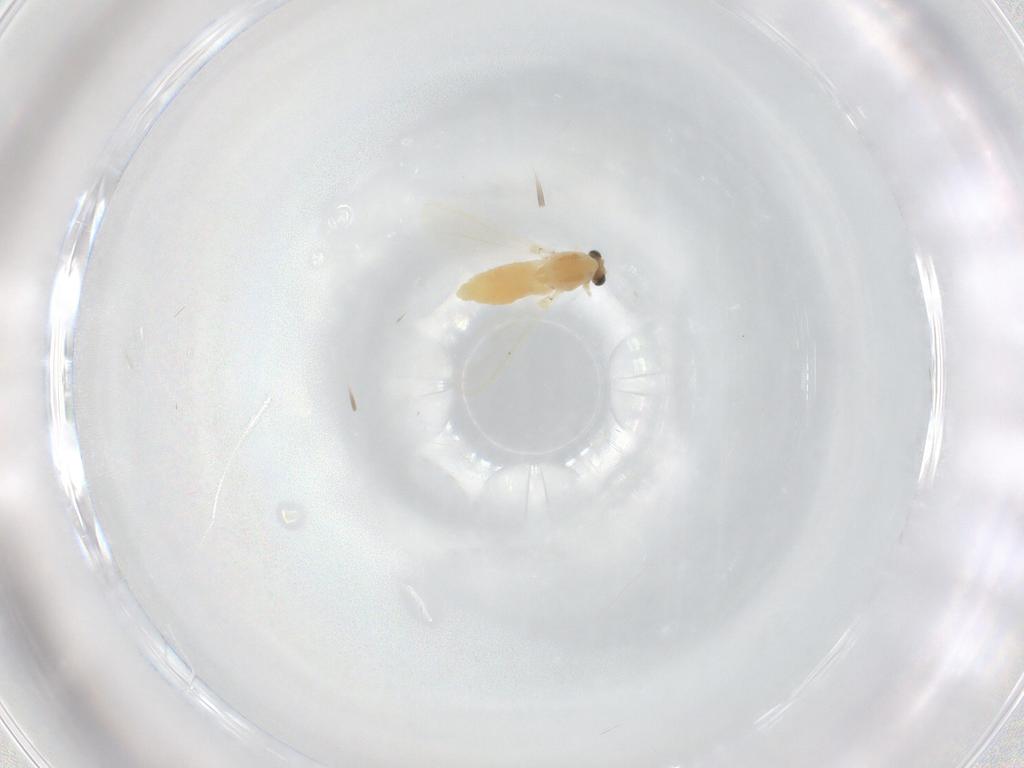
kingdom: Animalia
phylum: Arthropoda
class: Insecta
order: Diptera
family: Chironomidae
